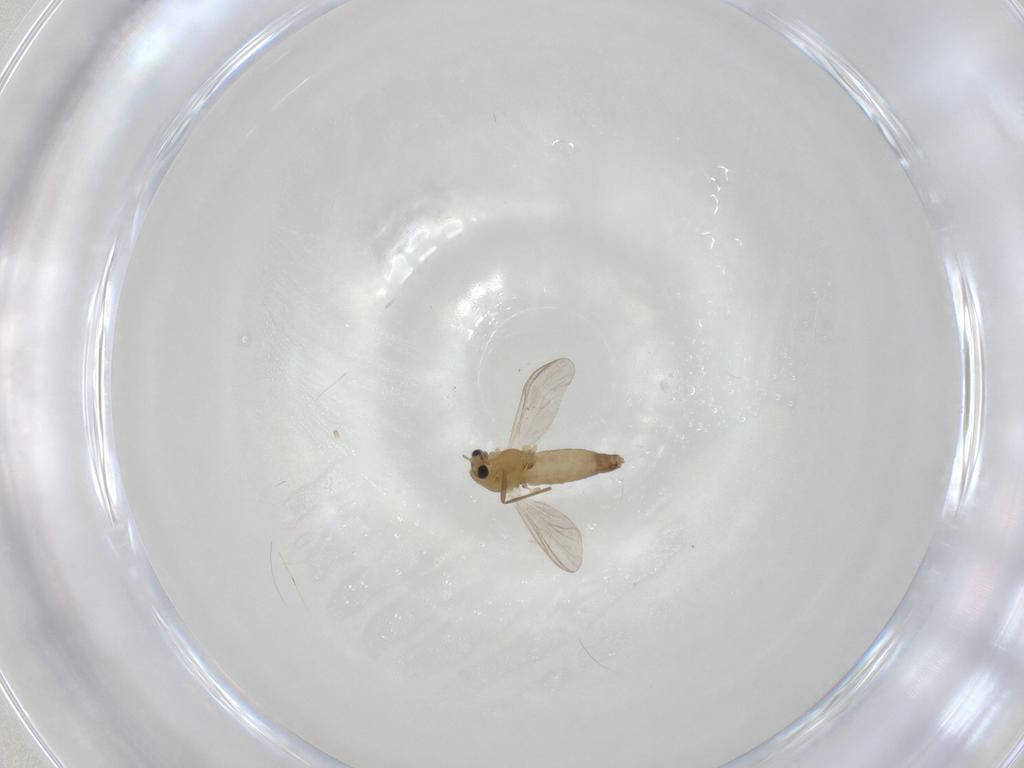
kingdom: Animalia
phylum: Arthropoda
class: Insecta
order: Diptera
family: Chironomidae
